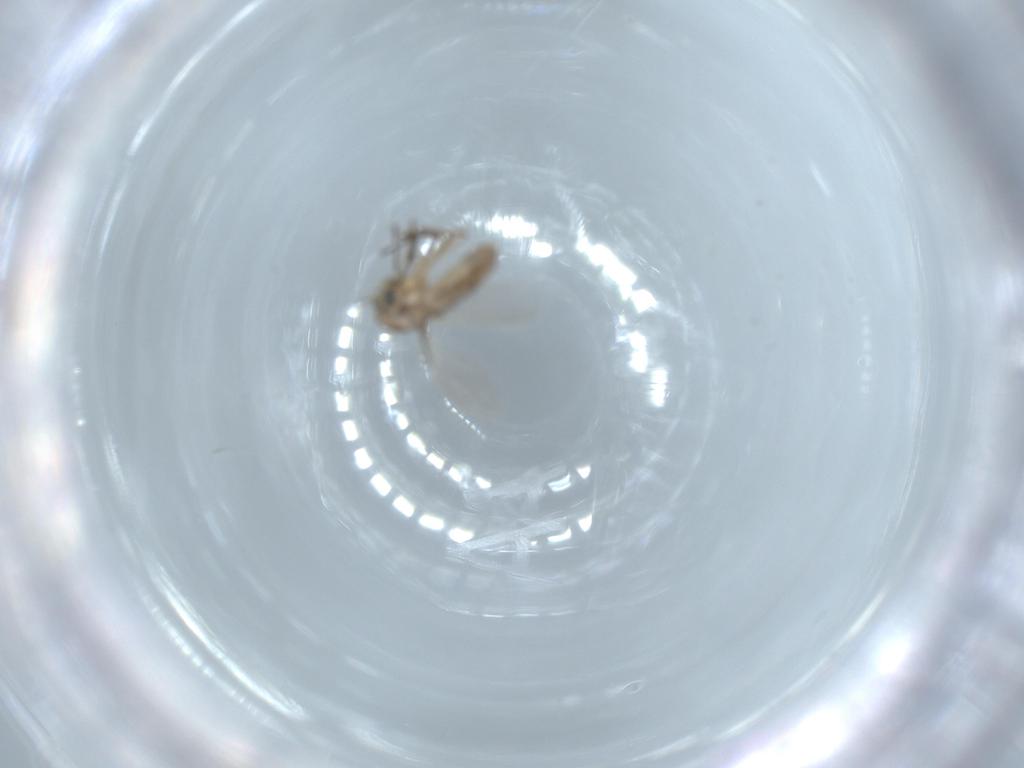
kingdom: Animalia
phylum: Arthropoda
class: Insecta
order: Diptera
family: Chironomidae
